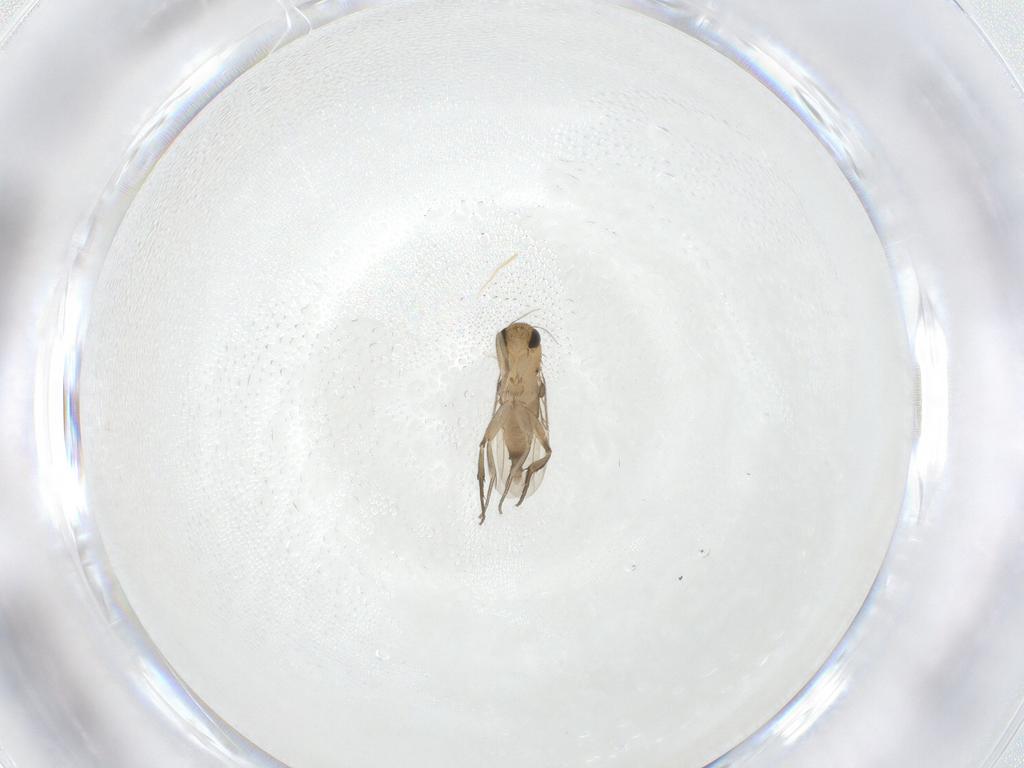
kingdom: Animalia
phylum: Arthropoda
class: Insecta
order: Diptera
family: Phoridae
